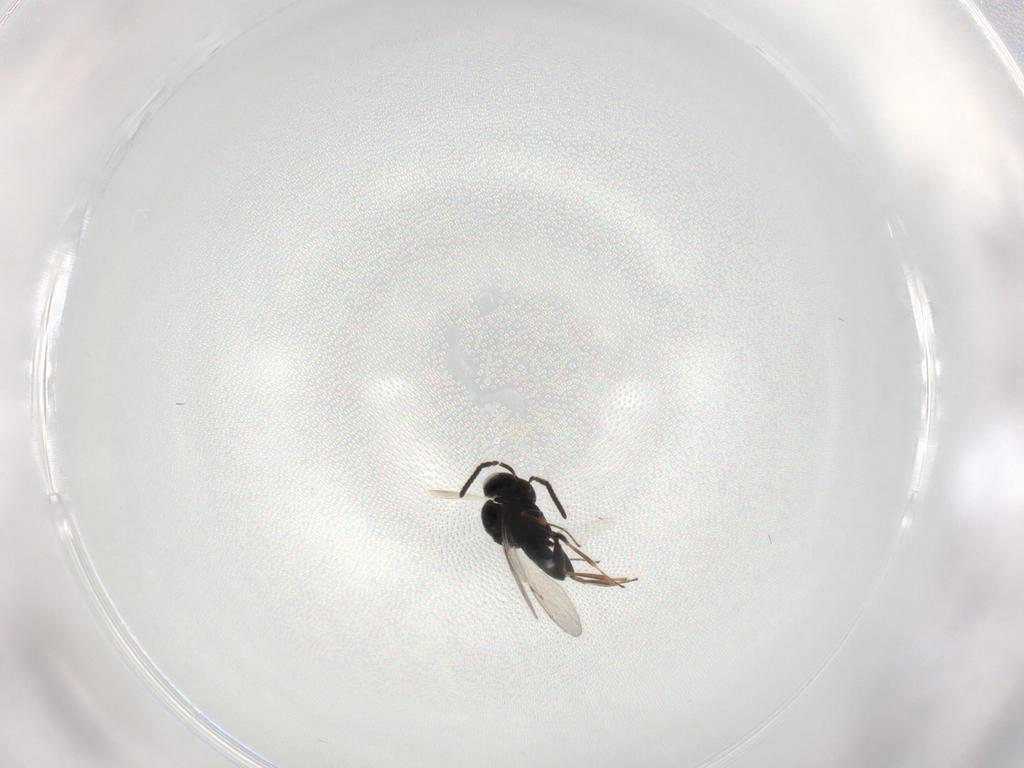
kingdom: Animalia
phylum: Arthropoda
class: Insecta
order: Hymenoptera
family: Scelionidae
